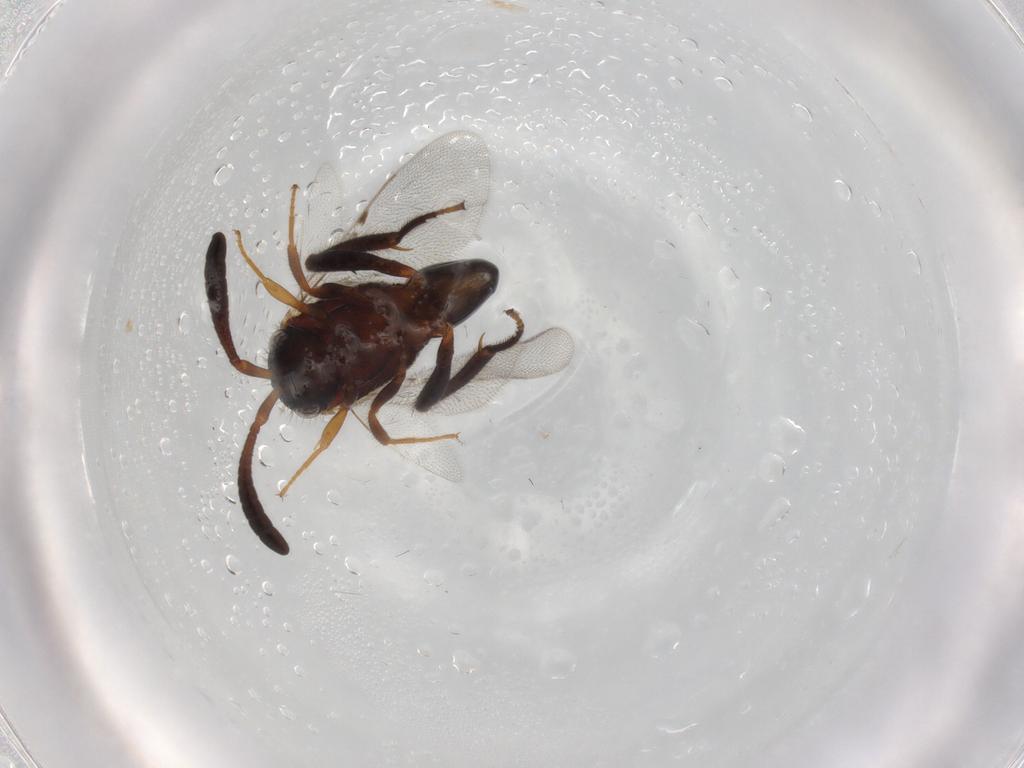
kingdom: Animalia
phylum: Arthropoda
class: Insecta
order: Hymenoptera
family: Evaniidae
